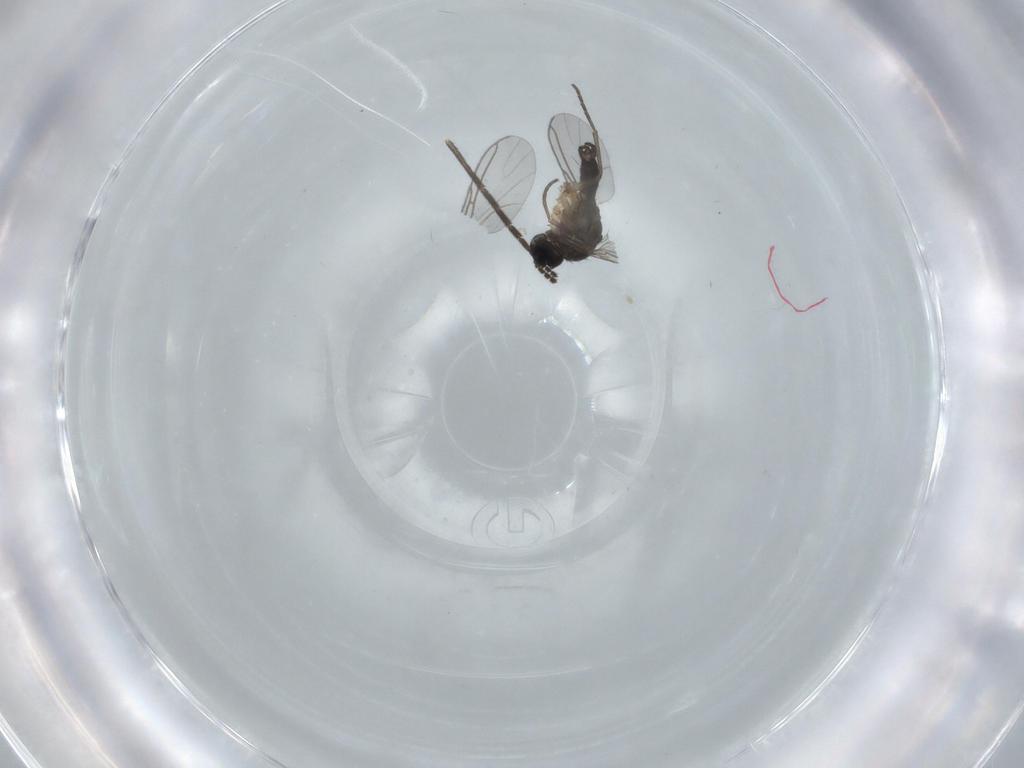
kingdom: Animalia
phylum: Arthropoda
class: Insecta
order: Diptera
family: Sciaridae
